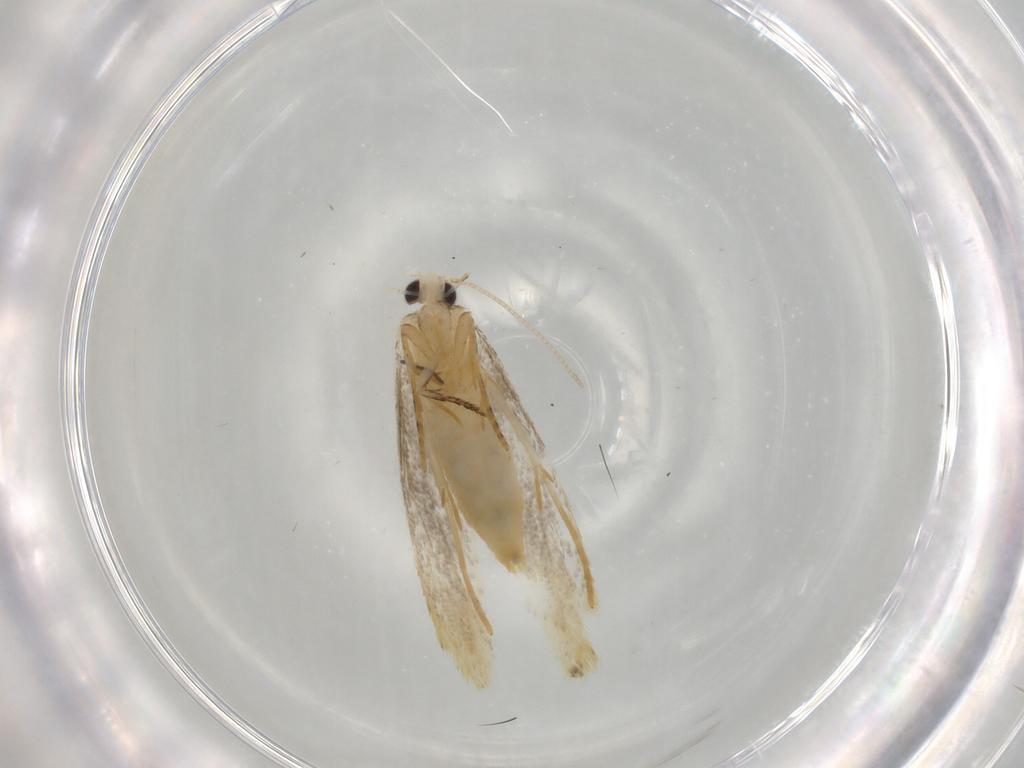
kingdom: Animalia
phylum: Arthropoda
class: Insecta
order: Lepidoptera
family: Tineidae
